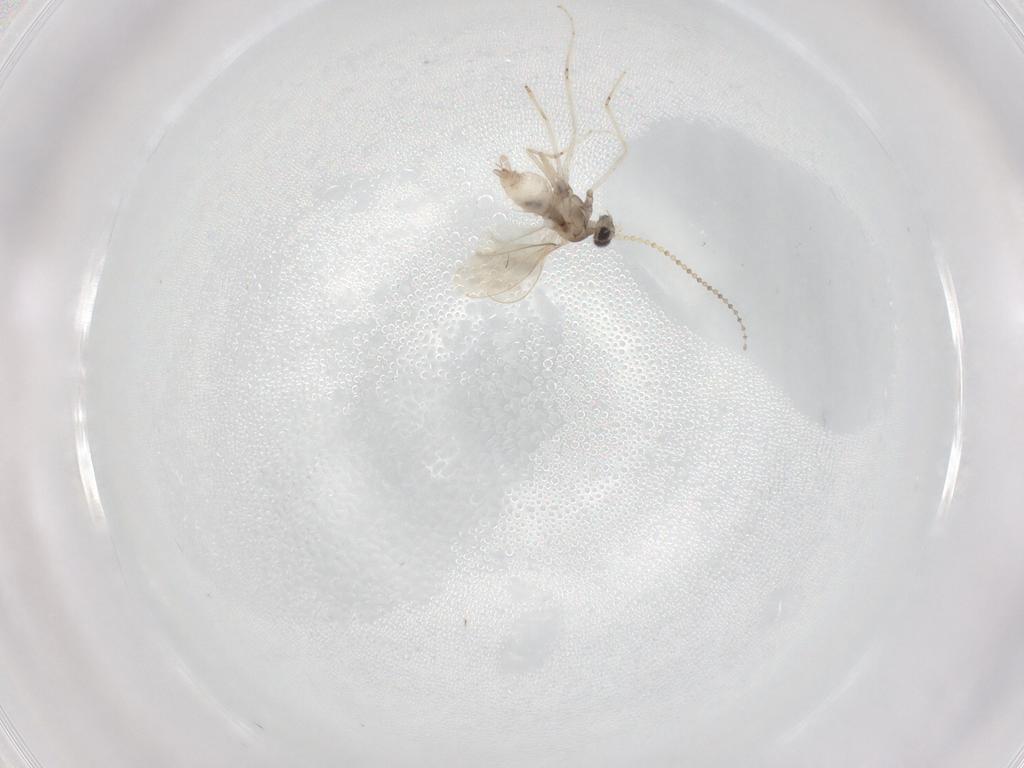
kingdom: Animalia
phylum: Arthropoda
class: Insecta
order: Diptera
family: Cecidomyiidae
